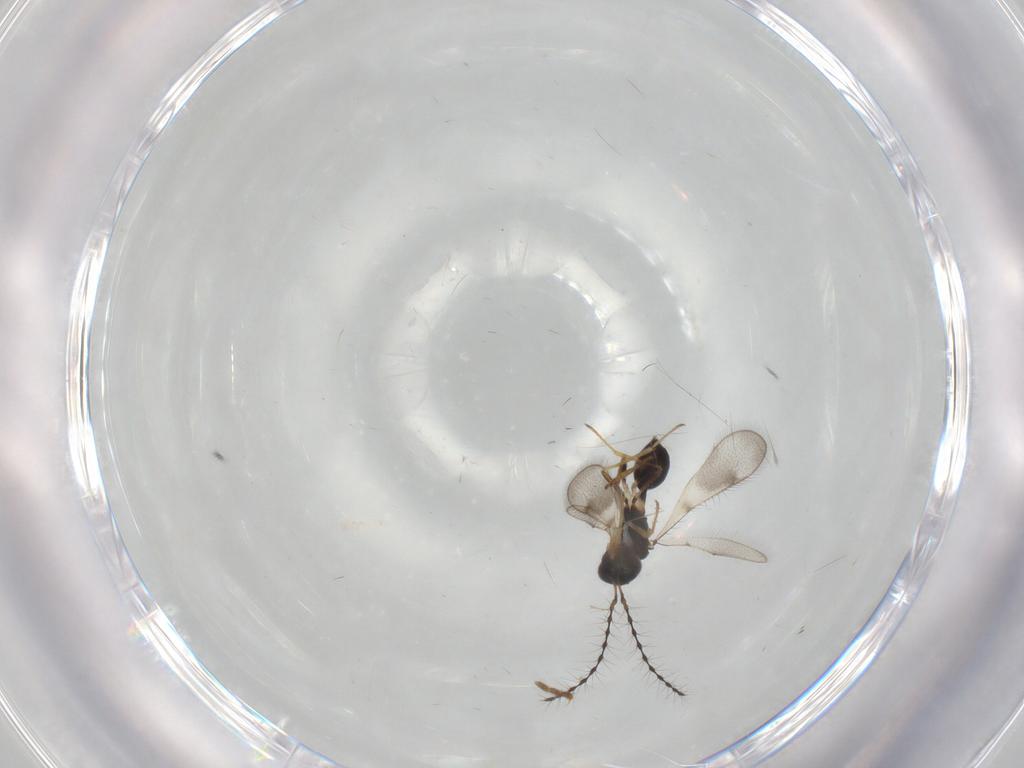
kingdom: Animalia
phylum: Arthropoda
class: Insecta
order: Hymenoptera
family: Diparidae
